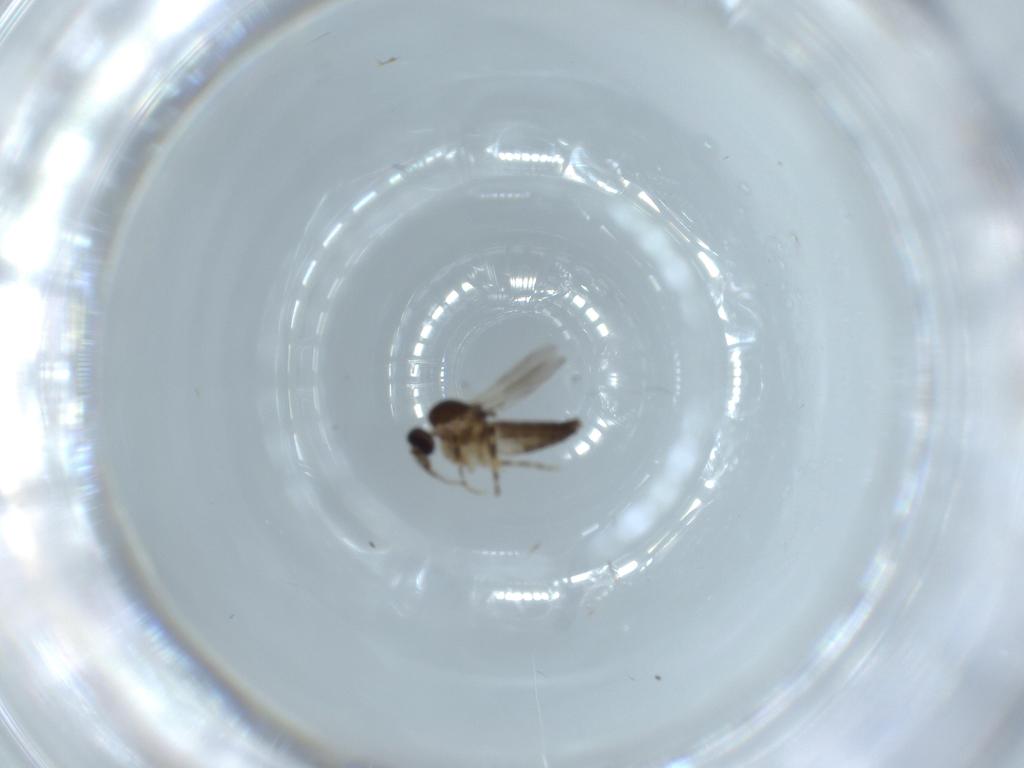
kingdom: Animalia
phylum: Arthropoda
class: Insecta
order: Diptera
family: Ceratopogonidae
